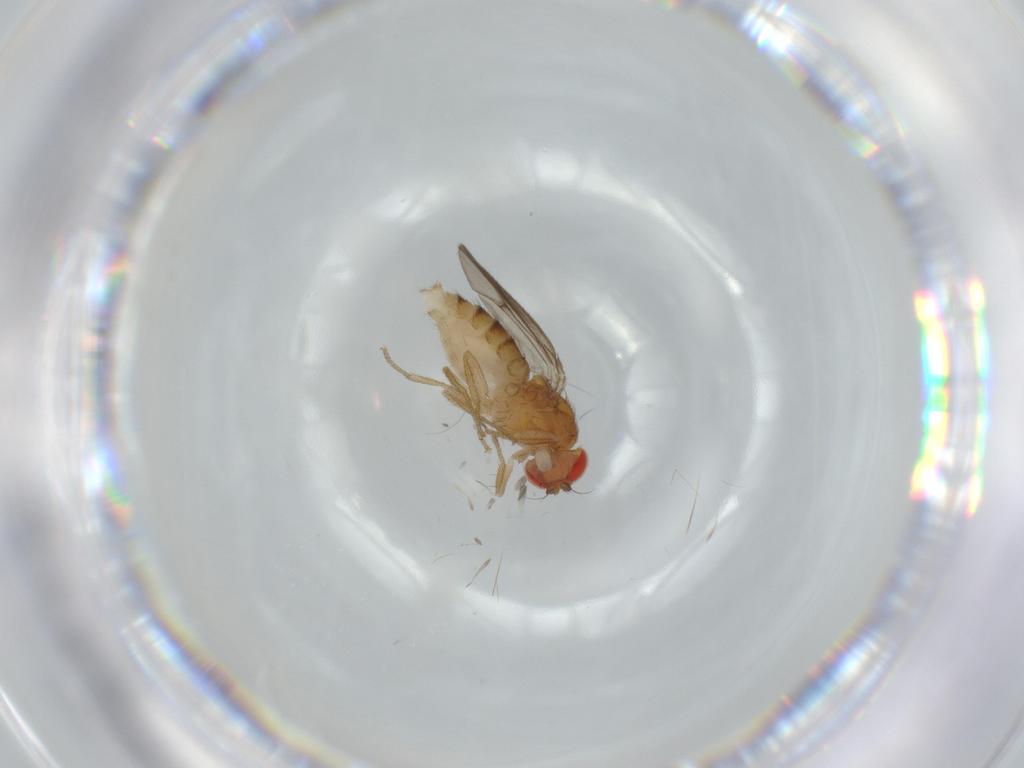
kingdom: Animalia
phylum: Arthropoda
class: Insecta
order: Diptera
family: Drosophilidae
